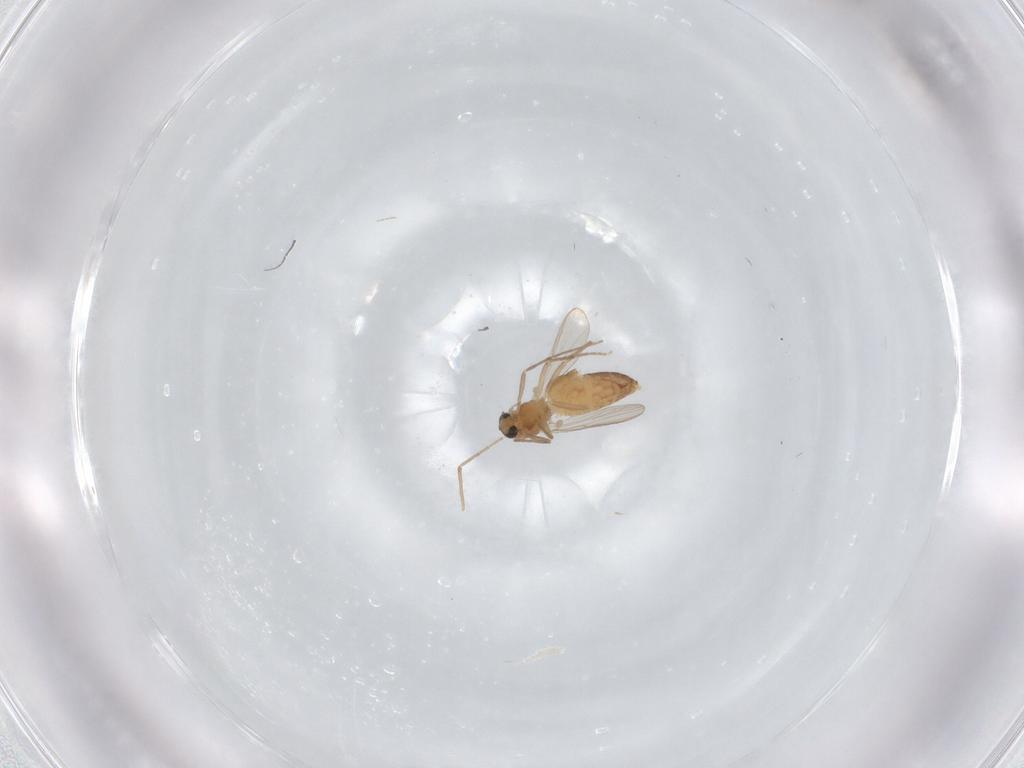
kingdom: Animalia
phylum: Arthropoda
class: Insecta
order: Diptera
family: Chironomidae
